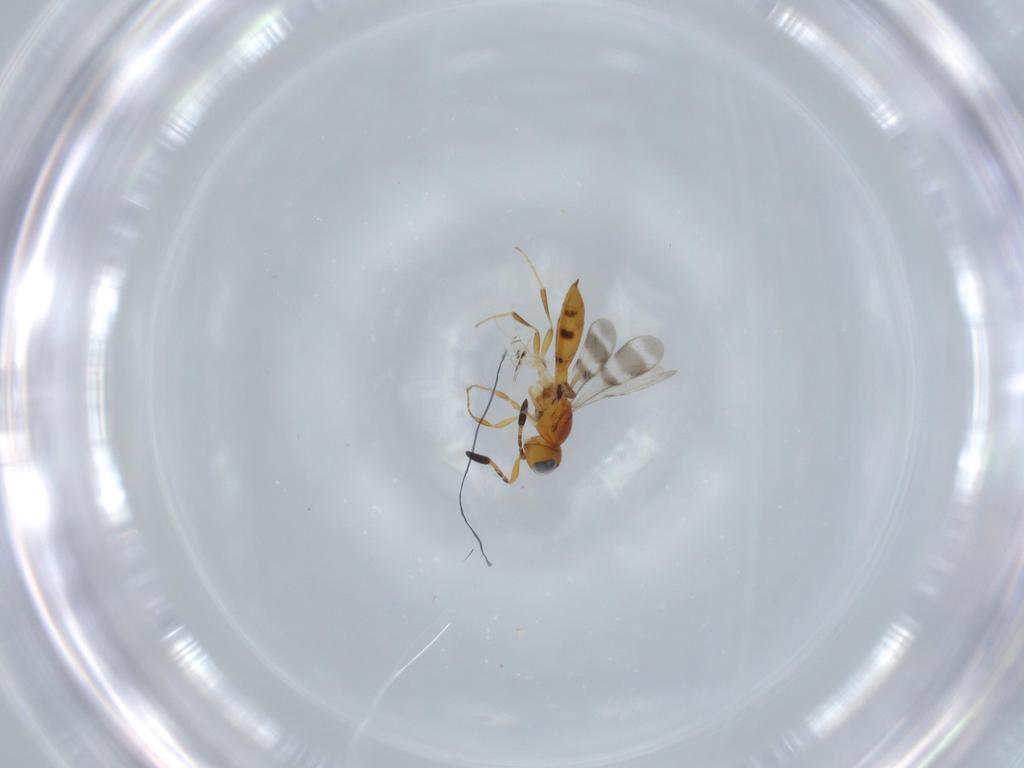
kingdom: Animalia
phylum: Arthropoda
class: Insecta
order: Hymenoptera
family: Scelionidae
